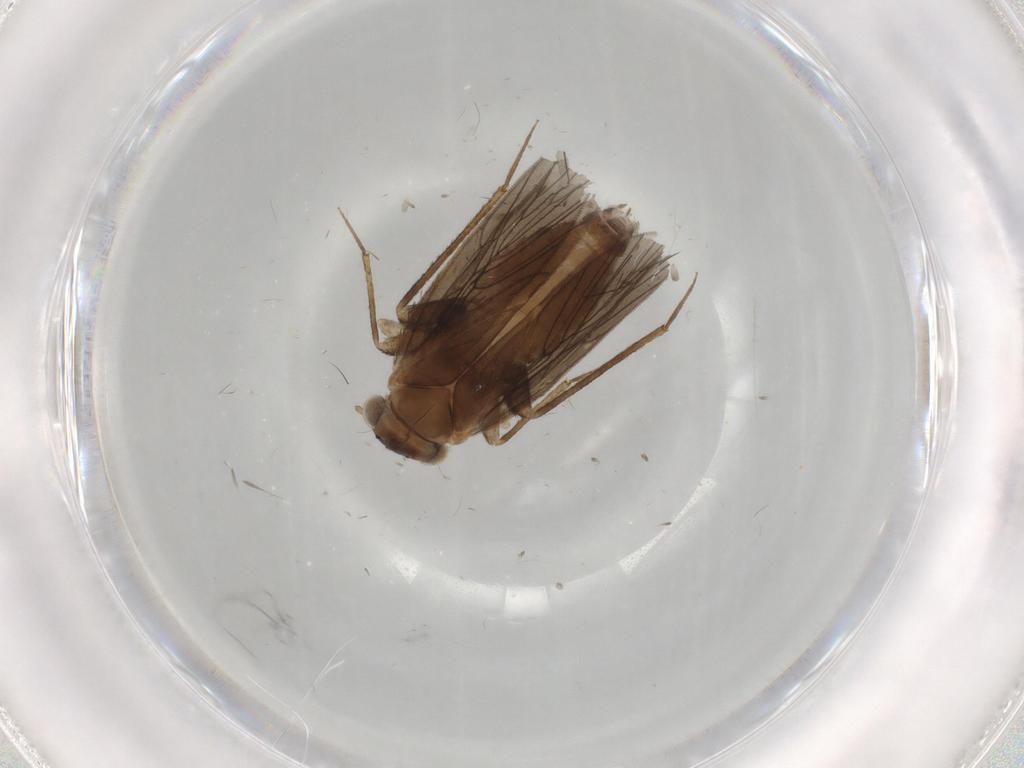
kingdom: Animalia
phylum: Arthropoda
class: Insecta
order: Psocodea
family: Lepidopsocidae
